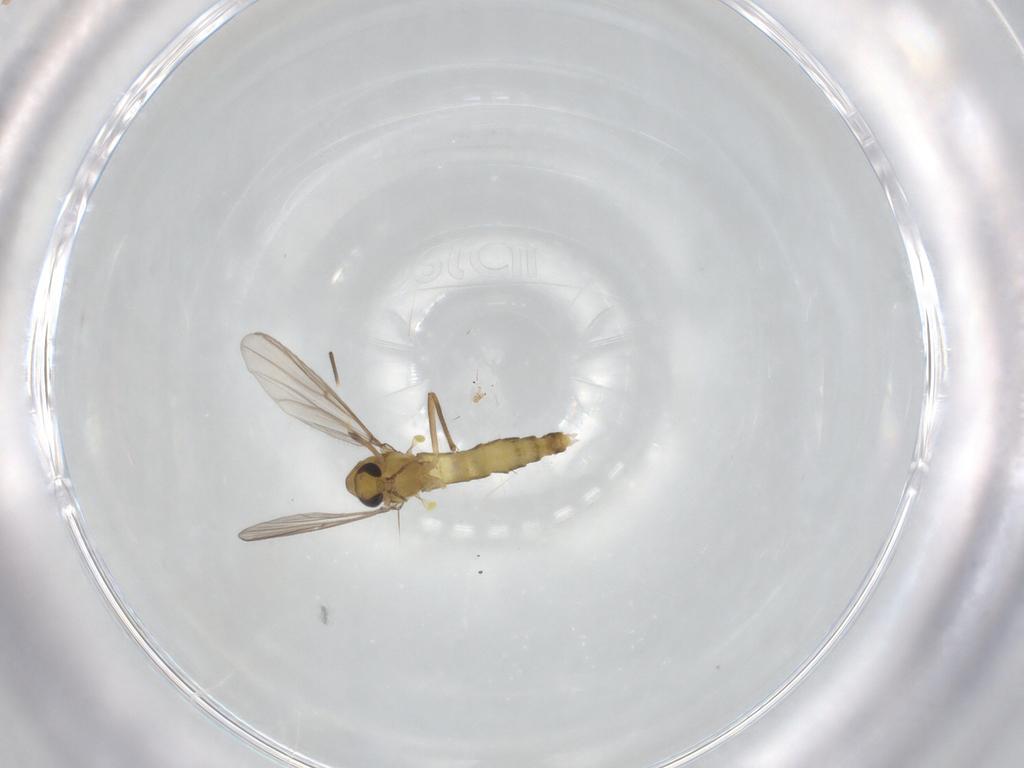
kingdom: Animalia
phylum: Arthropoda
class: Insecta
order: Diptera
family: Chironomidae
